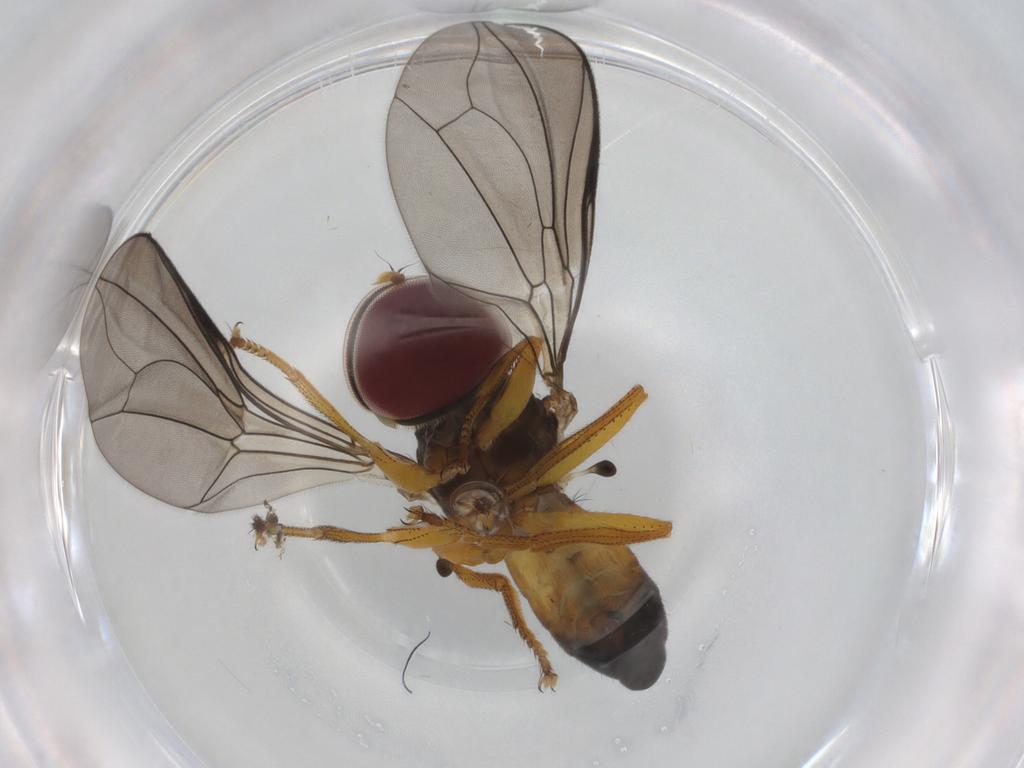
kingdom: Animalia
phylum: Arthropoda
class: Insecta
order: Diptera
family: Pipunculidae
